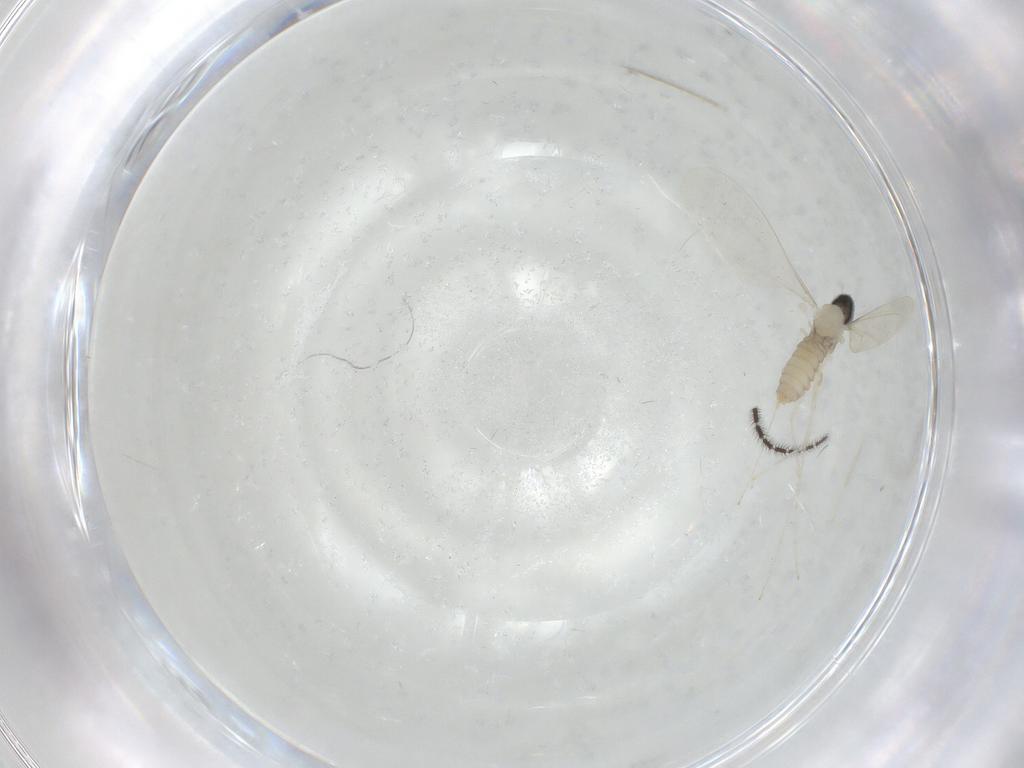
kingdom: Animalia
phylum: Arthropoda
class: Insecta
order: Diptera
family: Cecidomyiidae
